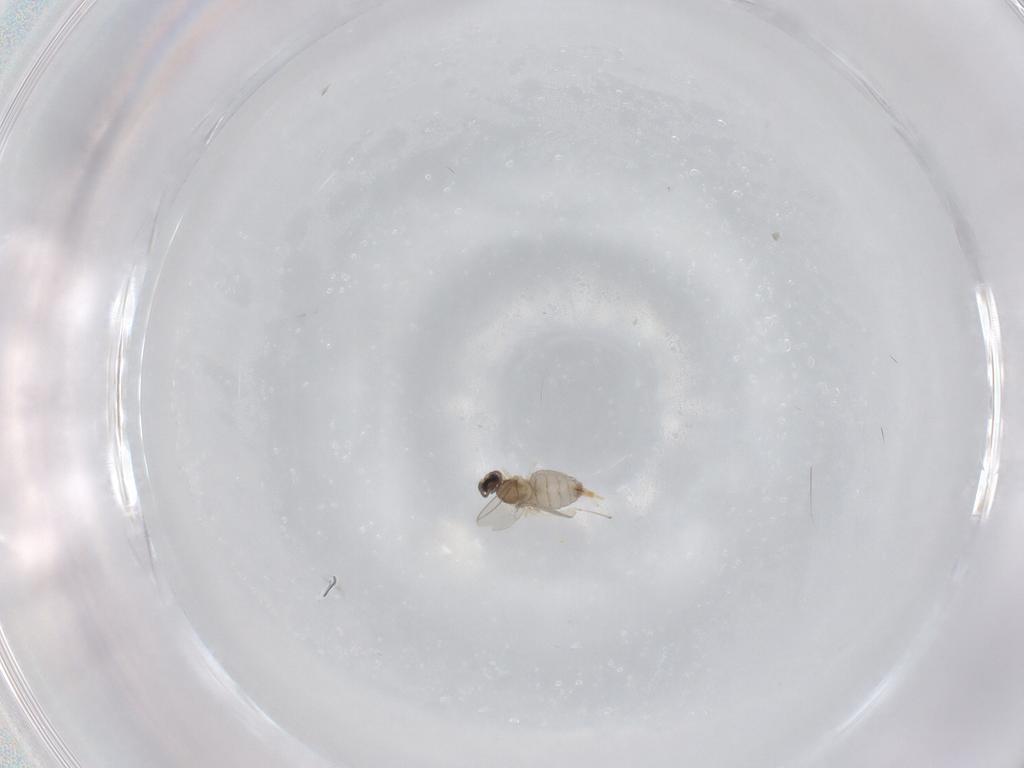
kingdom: Animalia
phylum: Arthropoda
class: Insecta
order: Diptera
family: Cecidomyiidae
